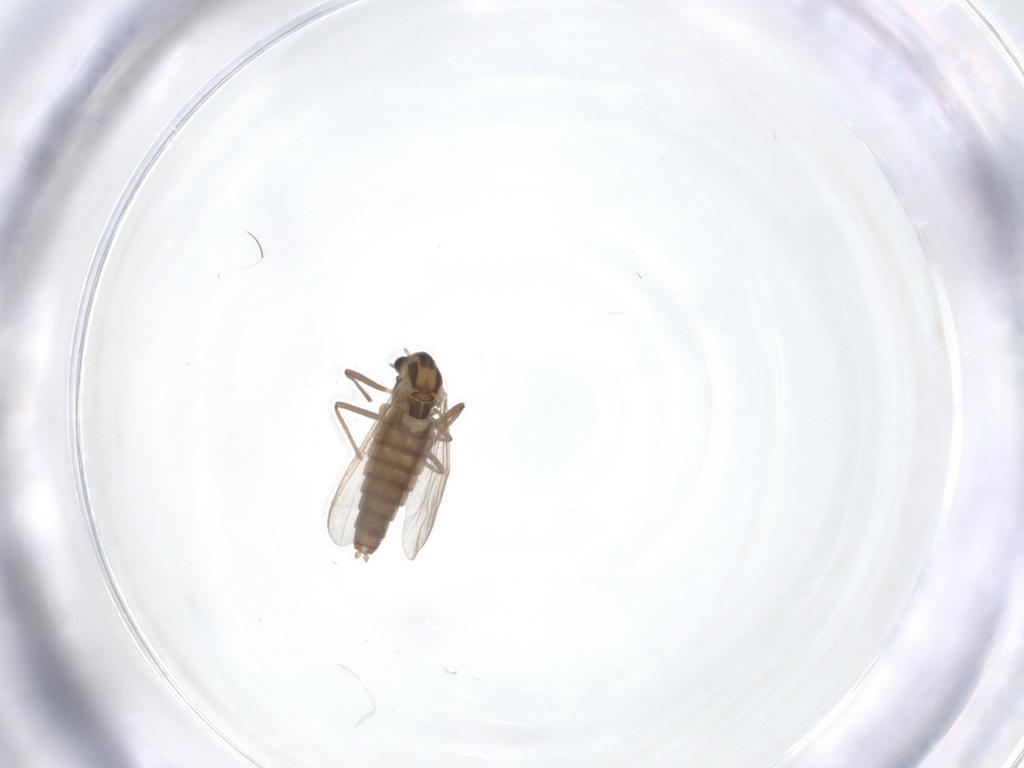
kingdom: Animalia
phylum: Arthropoda
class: Insecta
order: Diptera
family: Chironomidae
